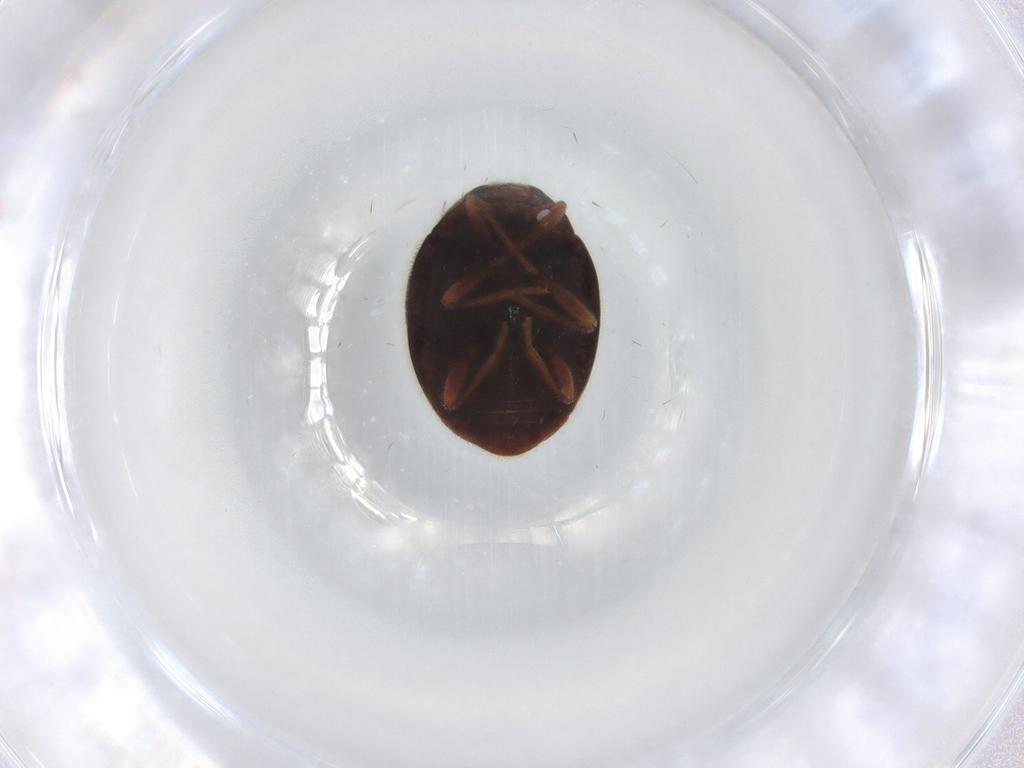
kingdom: Animalia
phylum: Arthropoda
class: Insecta
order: Coleoptera
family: Coccinellidae
